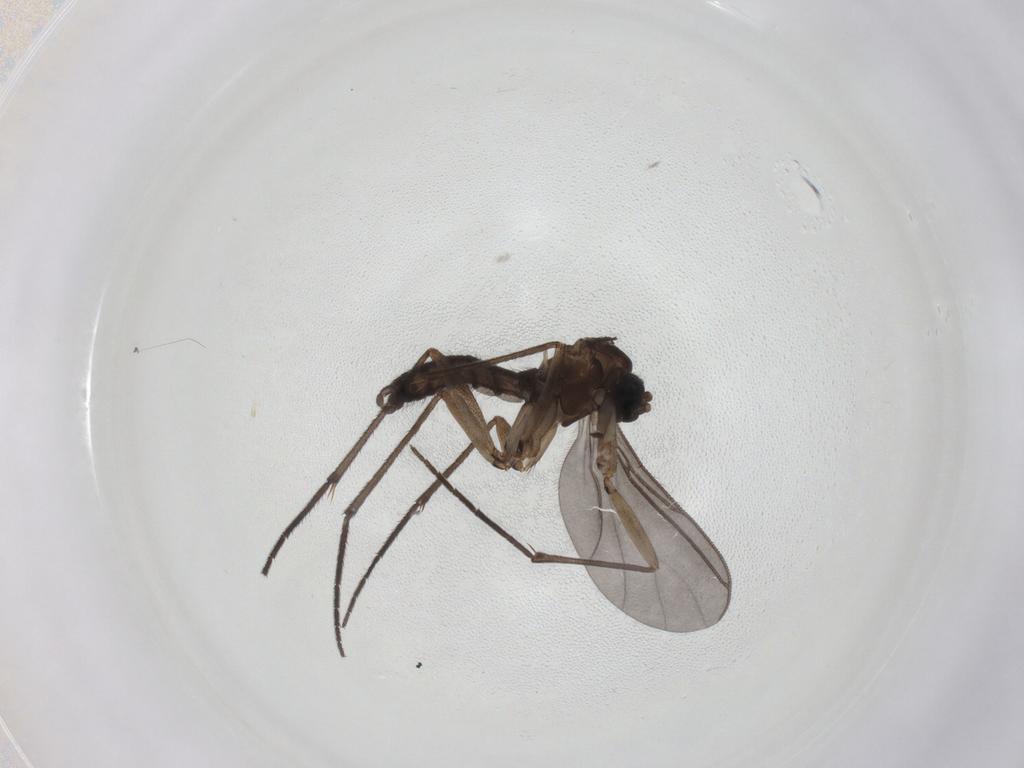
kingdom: Animalia
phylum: Arthropoda
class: Insecta
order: Diptera
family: Sciaridae
